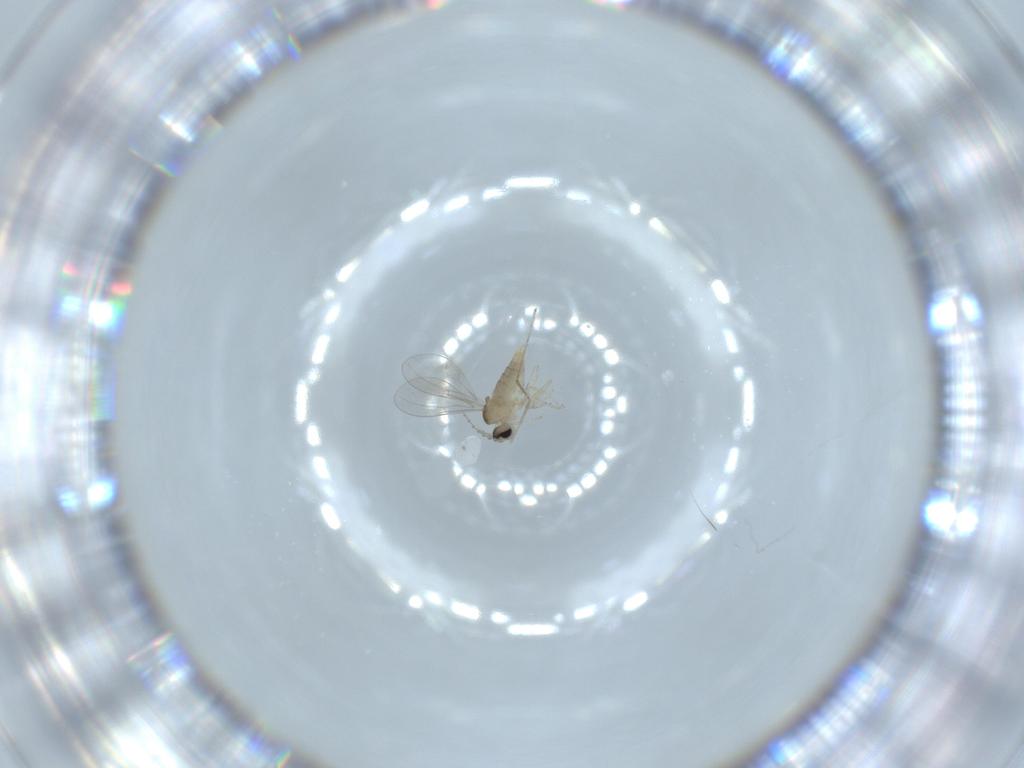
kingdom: Animalia
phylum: Arthropoda
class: Insecta
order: Diptera
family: Cecidomyiidae
